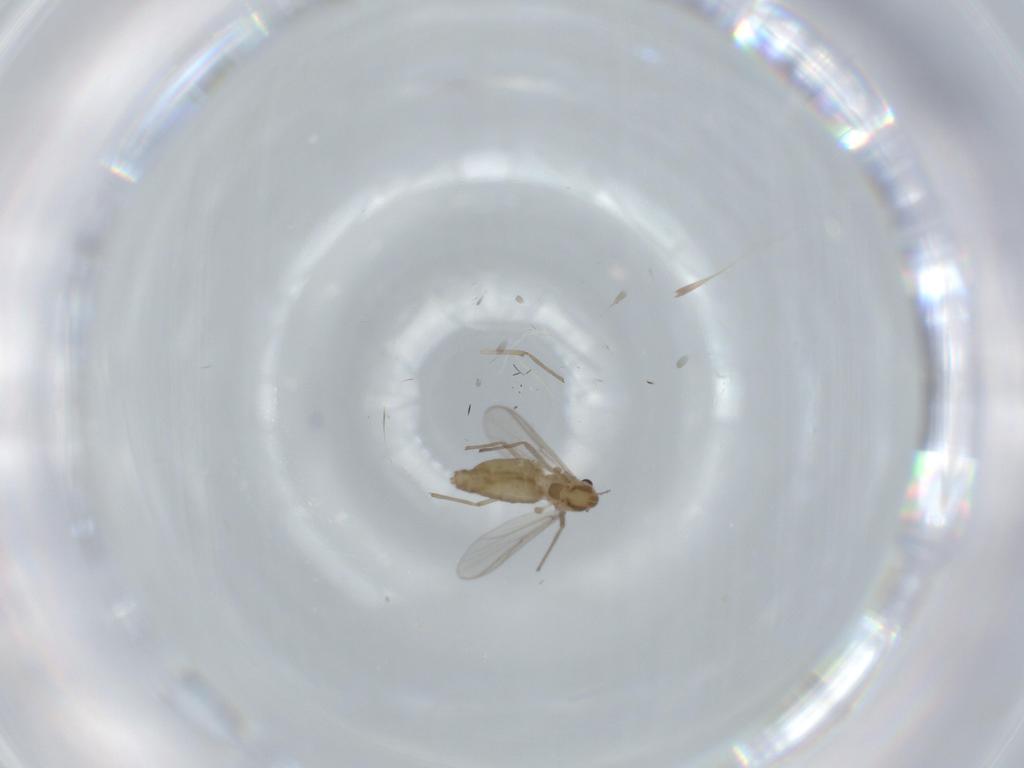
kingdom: Animalia
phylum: Arthropoda
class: Insecta
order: Diptera
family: Chironomidae
